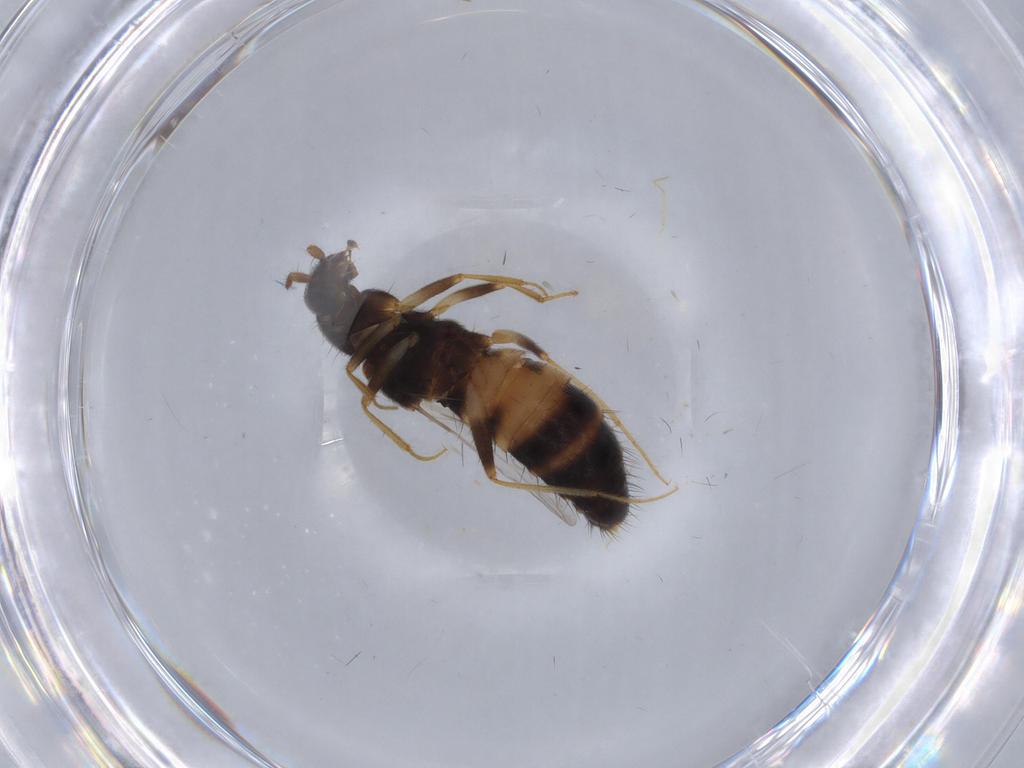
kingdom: Animalia
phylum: Arthropoda
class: Insecta
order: Coleoptera
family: Staphylinidae
